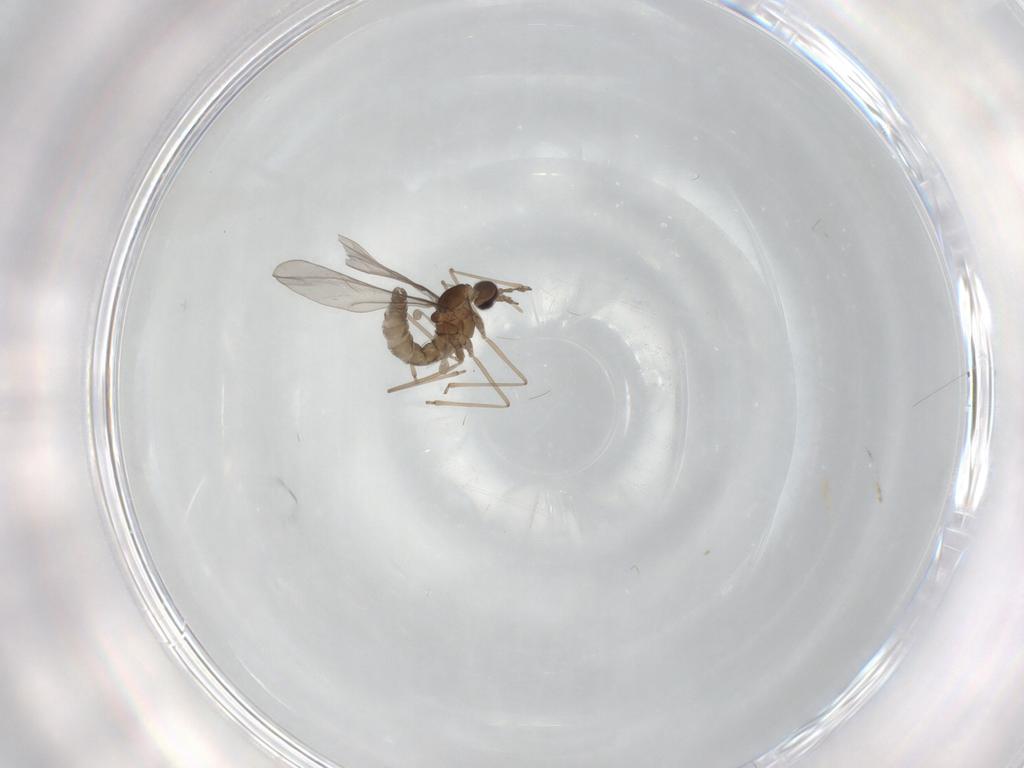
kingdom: Animalia
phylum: Arthropoda
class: Insecta
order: Diptera
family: Cecidomyiidae
